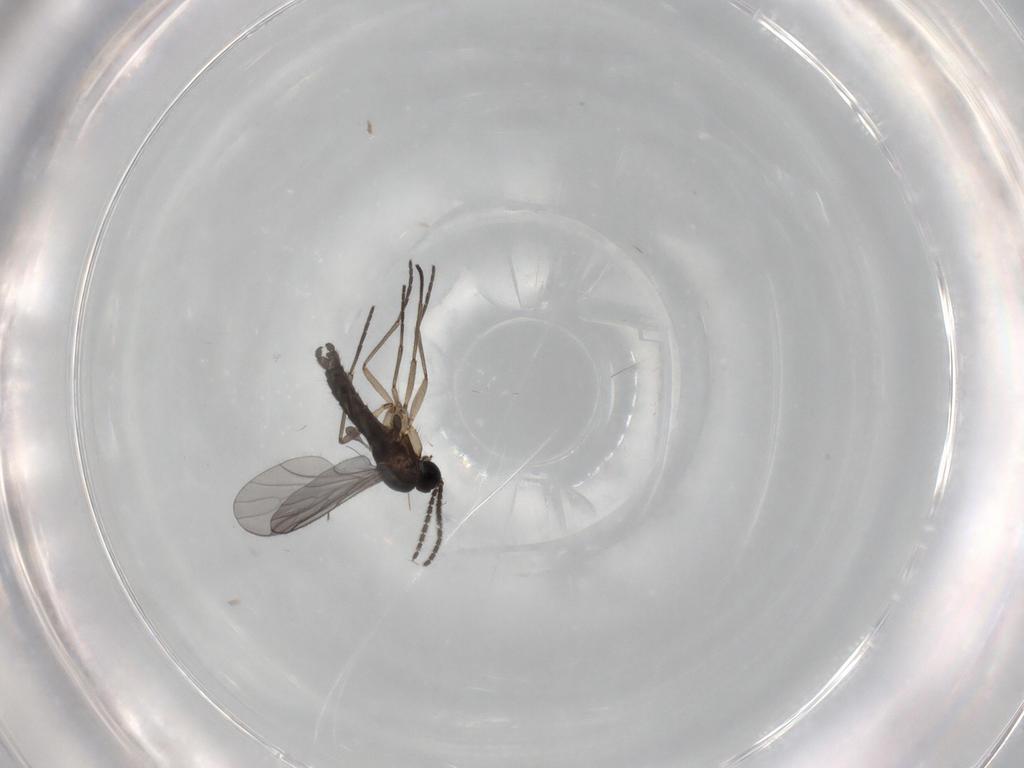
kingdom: Animalia
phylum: Arthropoda
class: Insecta
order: Diptera
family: Sciaridae
